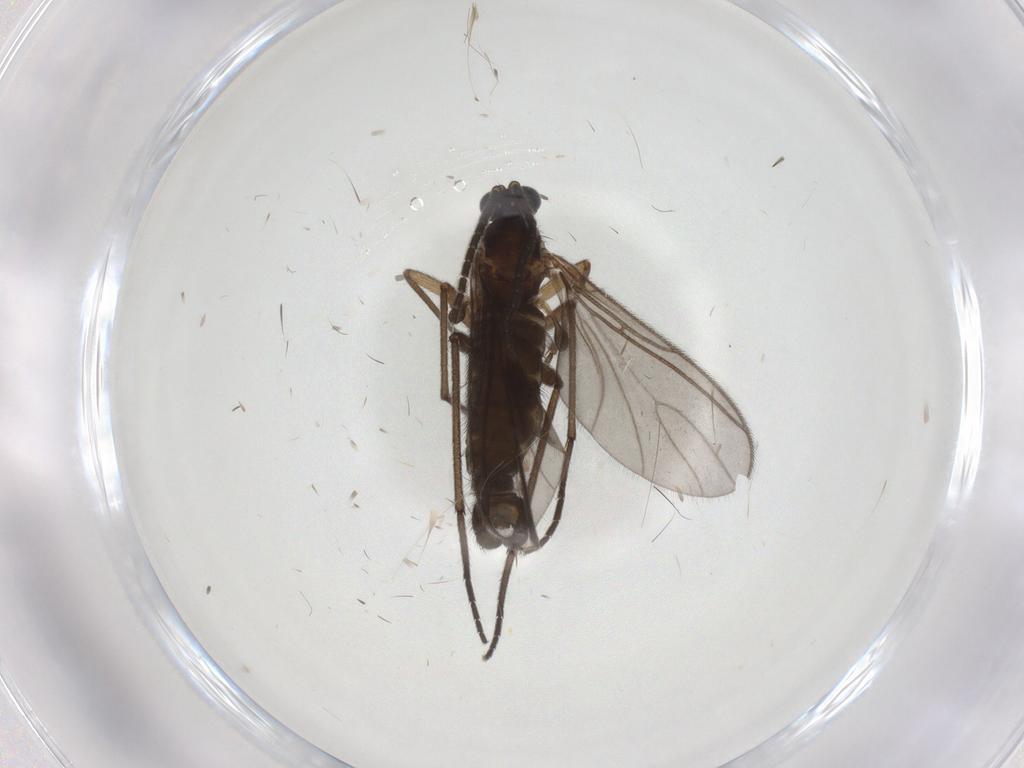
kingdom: Animalia
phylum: Arthropoda
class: Insecta
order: Diptera
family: Sciaridae
